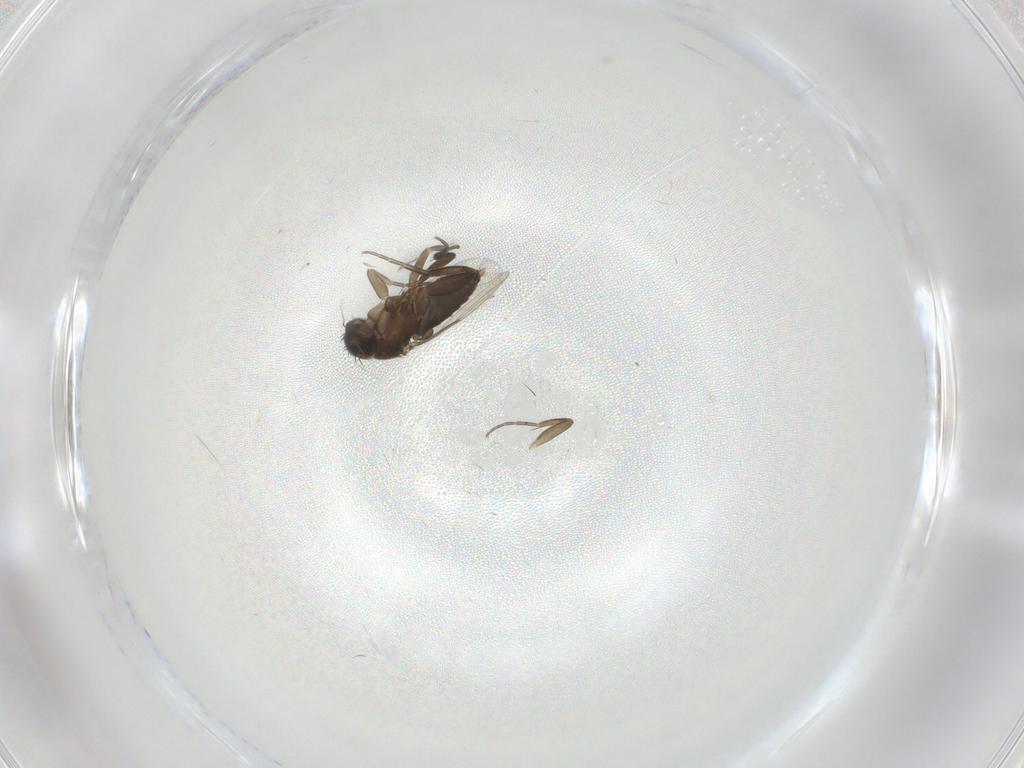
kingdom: Animalia
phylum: Arthropoda
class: Insecta
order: Diptera
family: Phoridae
